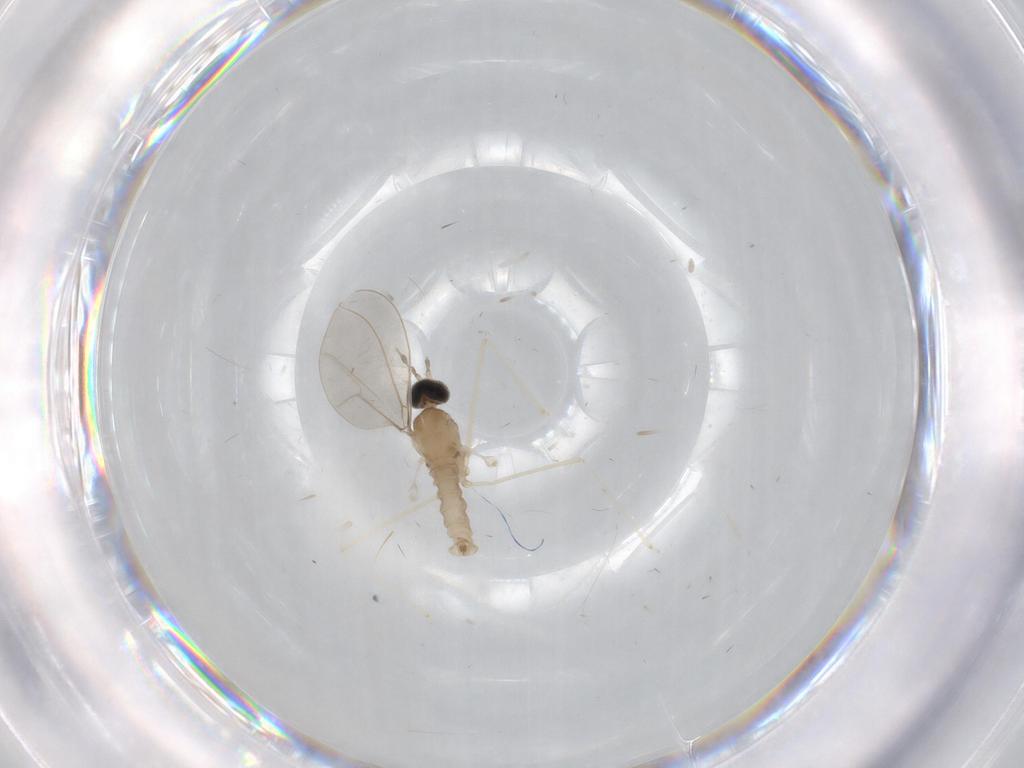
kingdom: Animalia
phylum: Arthropoda
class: Insecta
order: Diptera
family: Cecidomyiidae
